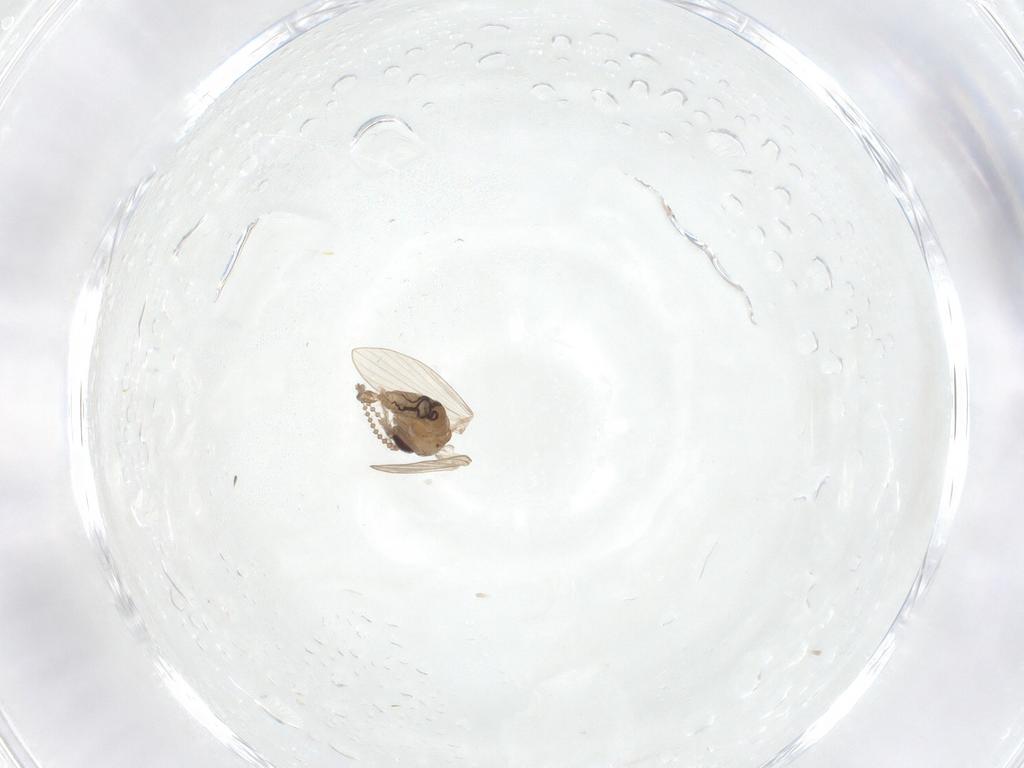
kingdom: Animalia
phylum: Arthropoda
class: Insecta
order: Diptera
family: Psychodidae
